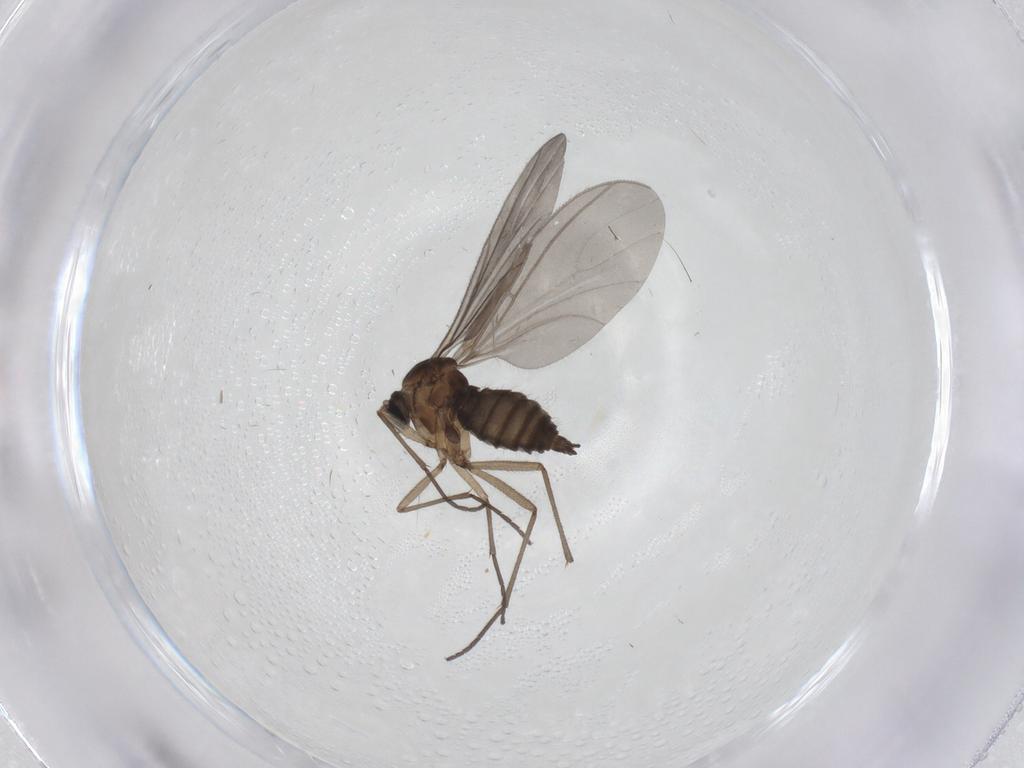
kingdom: Animalia
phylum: Arthropoda
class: Insecta
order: Diptera
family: Sciaridae
